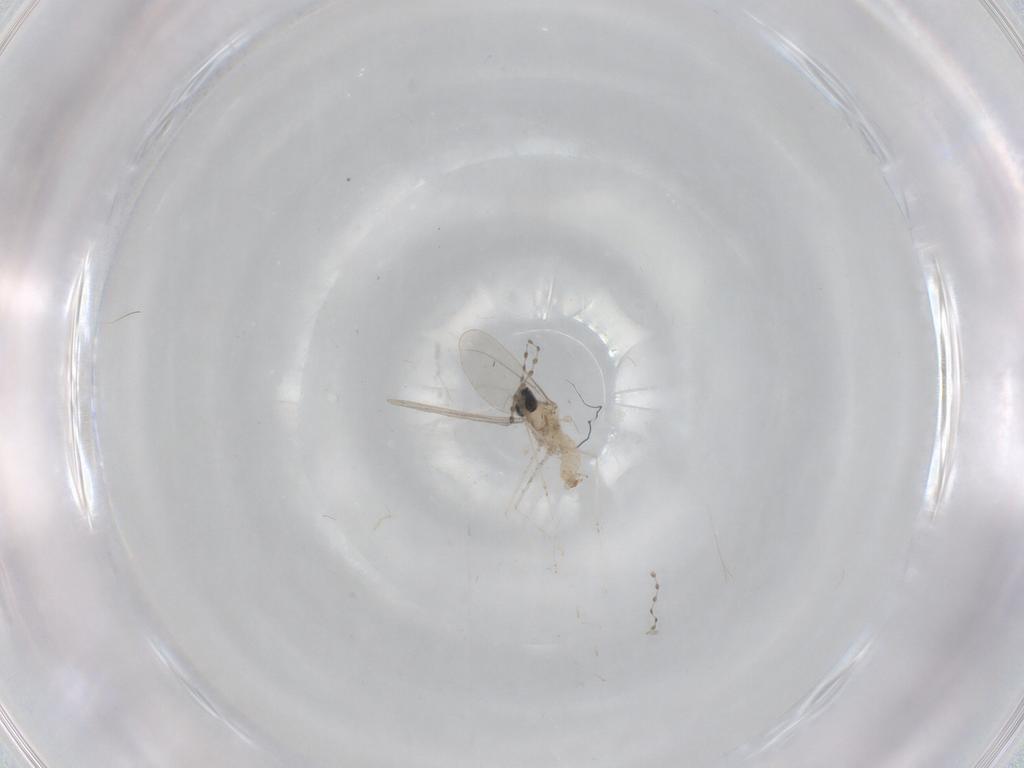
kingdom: Animalia
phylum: Arthropoda
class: Insecta
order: Diptera
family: Cecidomyiidae
